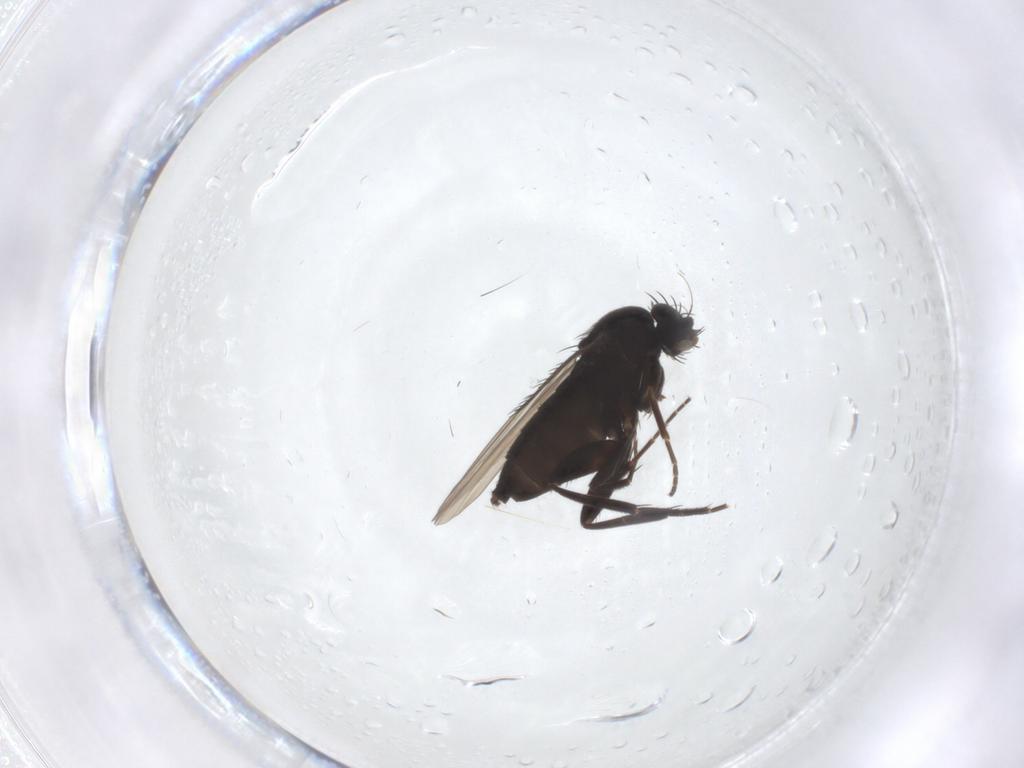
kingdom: Animalia
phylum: Arthropoda
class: Insecta
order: Diptera
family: Phoridae
